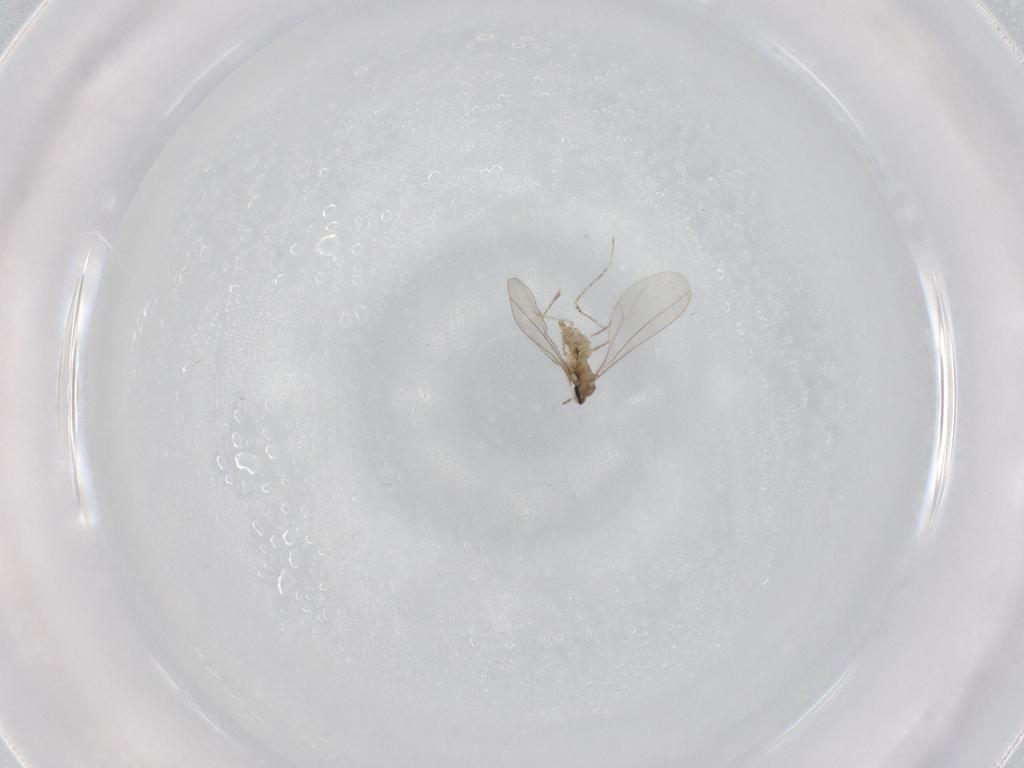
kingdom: Animalia
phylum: Arthropoda
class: Insecta
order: Diptera
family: Cecidomyiidae
